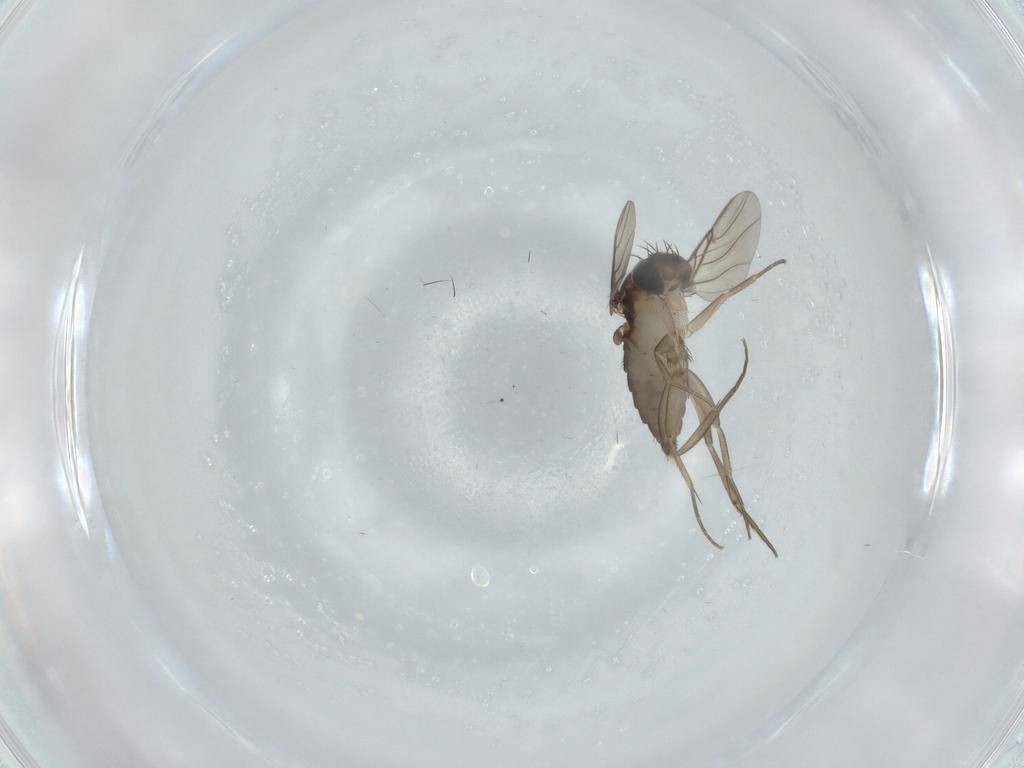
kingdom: Animalia
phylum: Arthropoda
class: Insecta
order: Diptera
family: Phoridae
